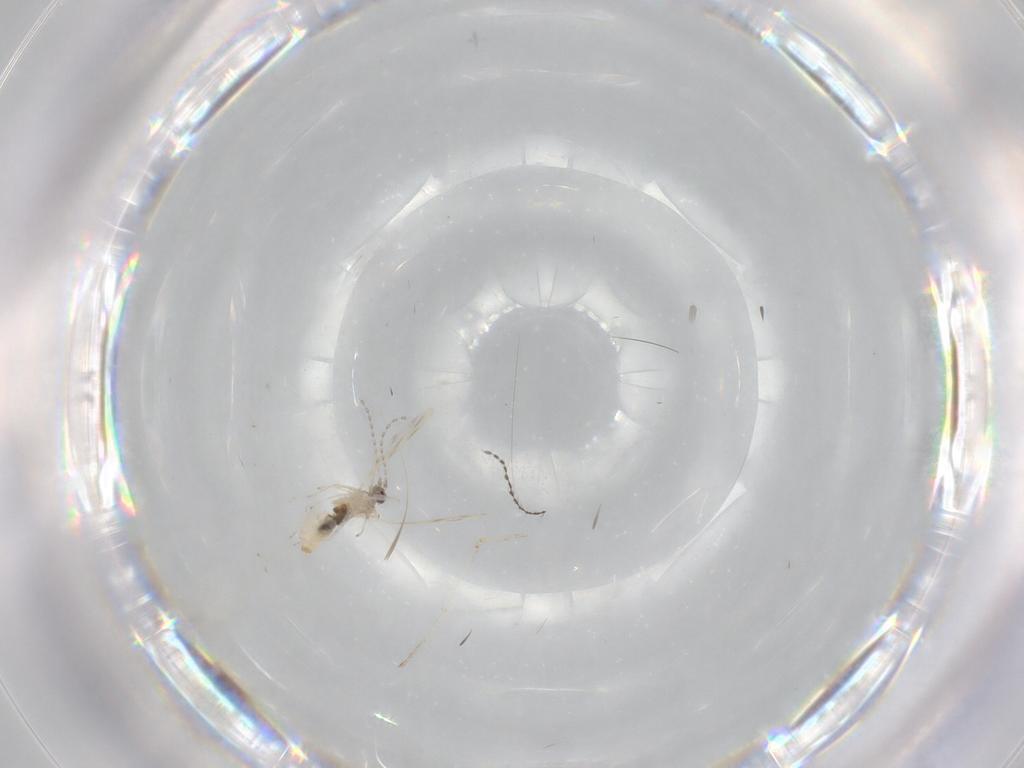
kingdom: Animalia
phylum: Arthropoda
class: Insecta
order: Diptera
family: Cecidomyiidae
